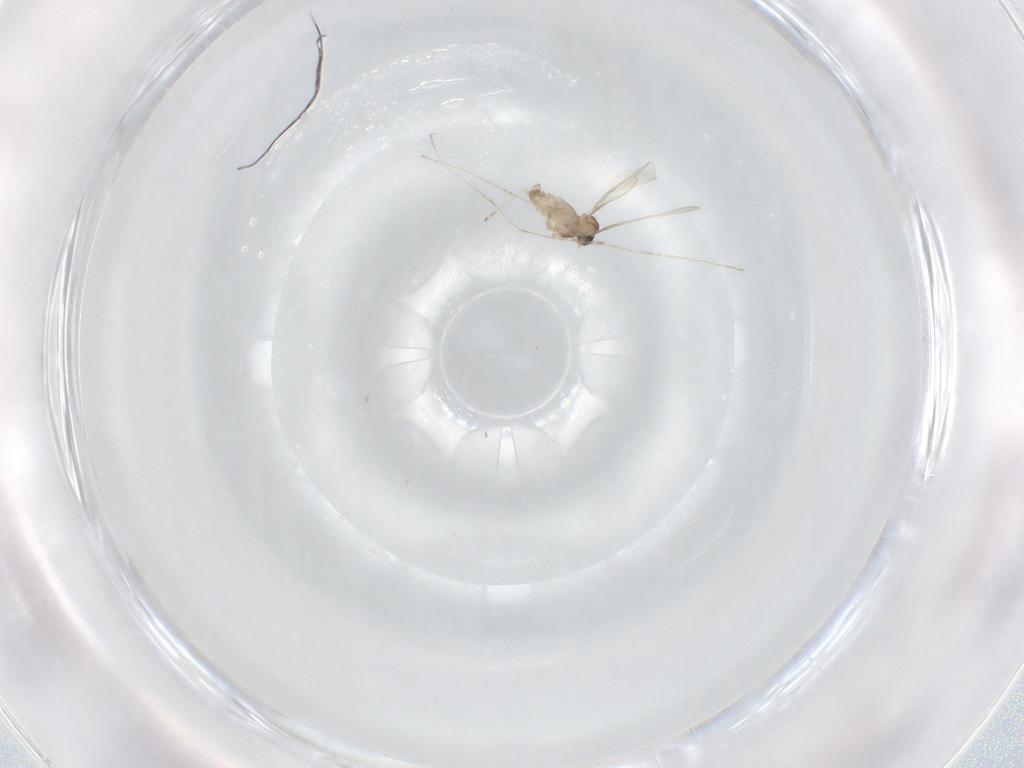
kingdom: Animalia
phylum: Arthropoda
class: Insecta
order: Diptera
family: Cecidomyiidae
